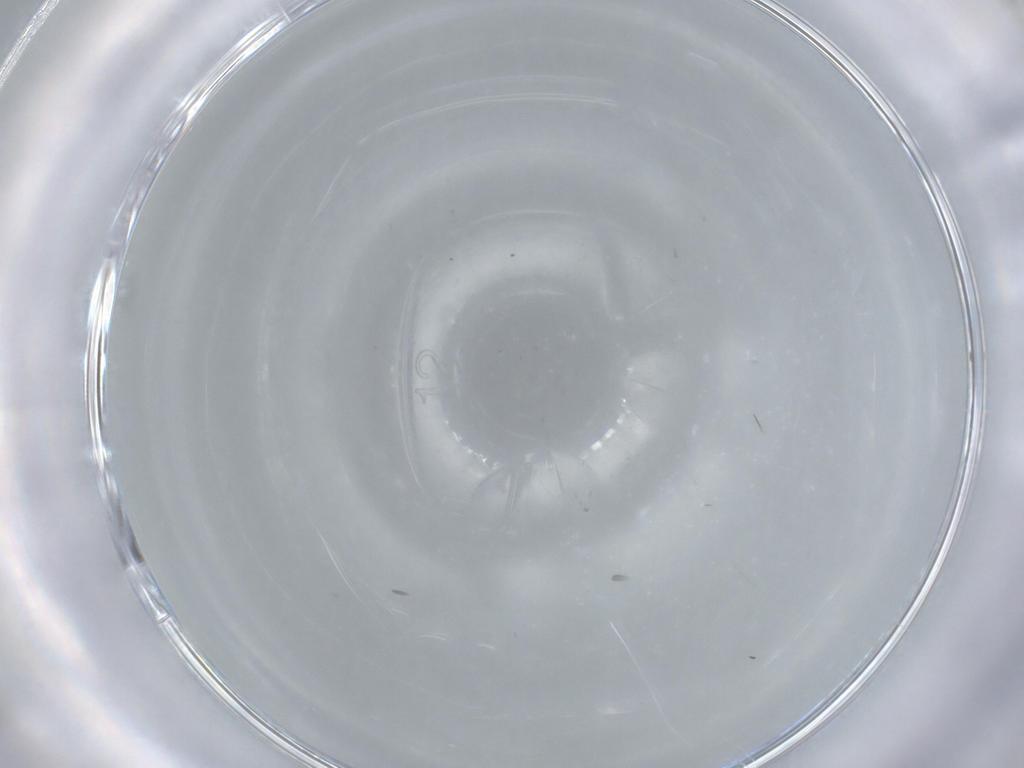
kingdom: Animalia
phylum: Arthropoda
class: Insecta
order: Diptera
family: Cecidomyiidae
